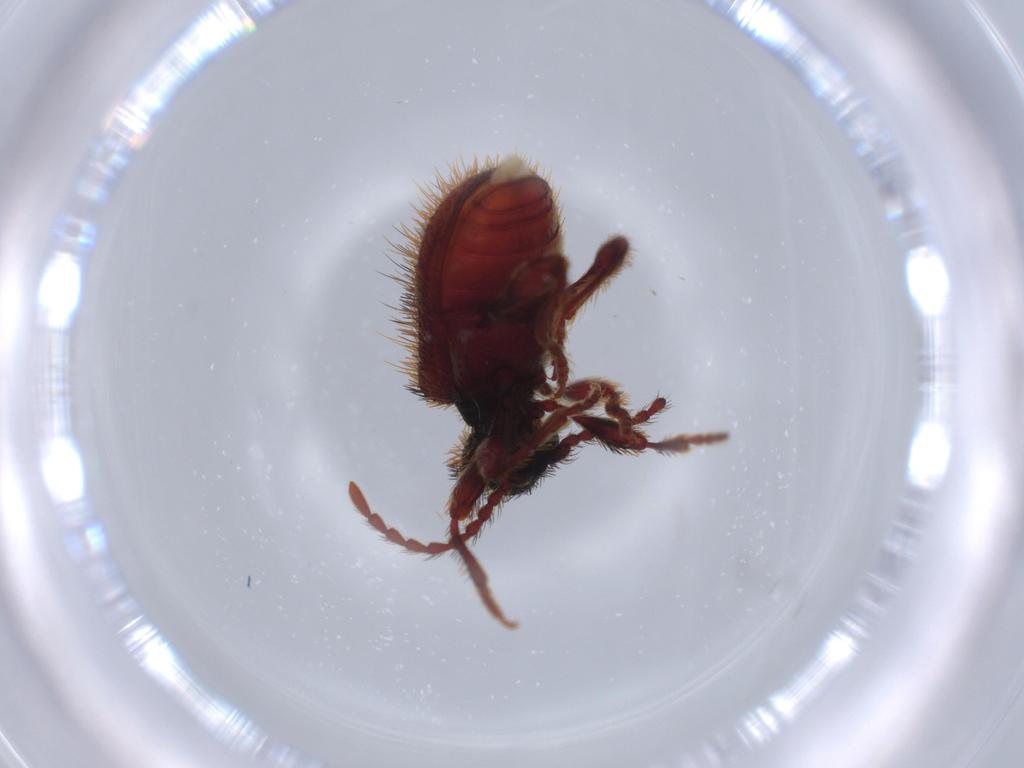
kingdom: Animalia
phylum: Arthropoda
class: Insecta
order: Coleoptera
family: Ptinidae
